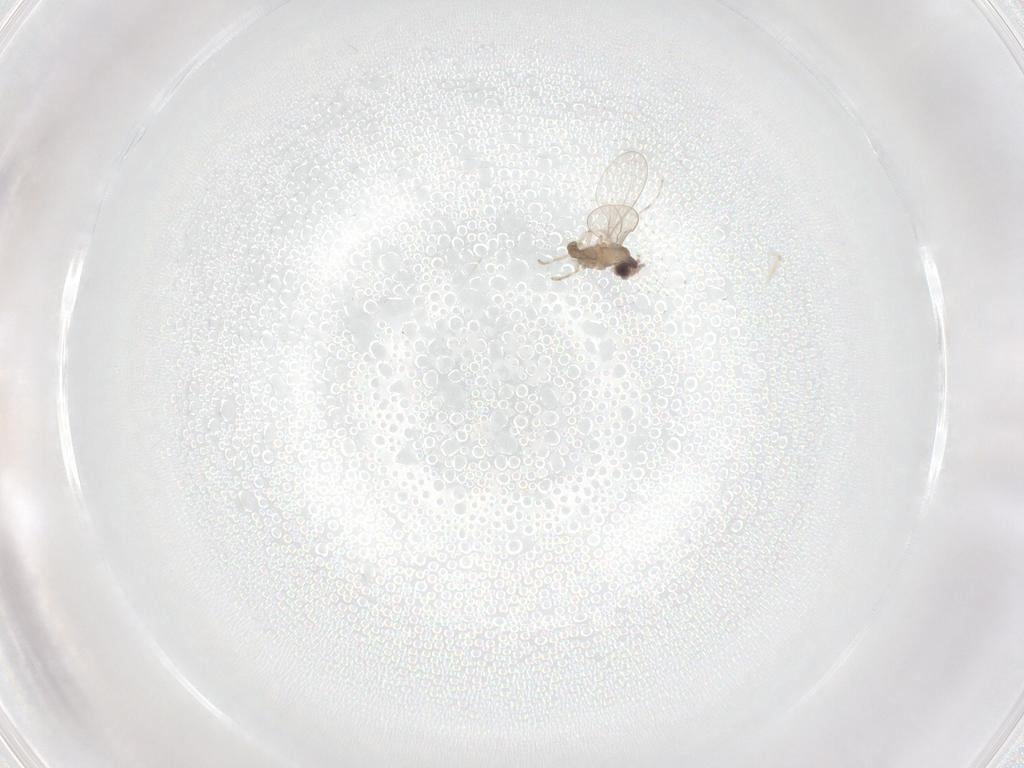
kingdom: Animalia
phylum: Arthropoda
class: Insecta
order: Diptera
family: Cecidomyiidae
